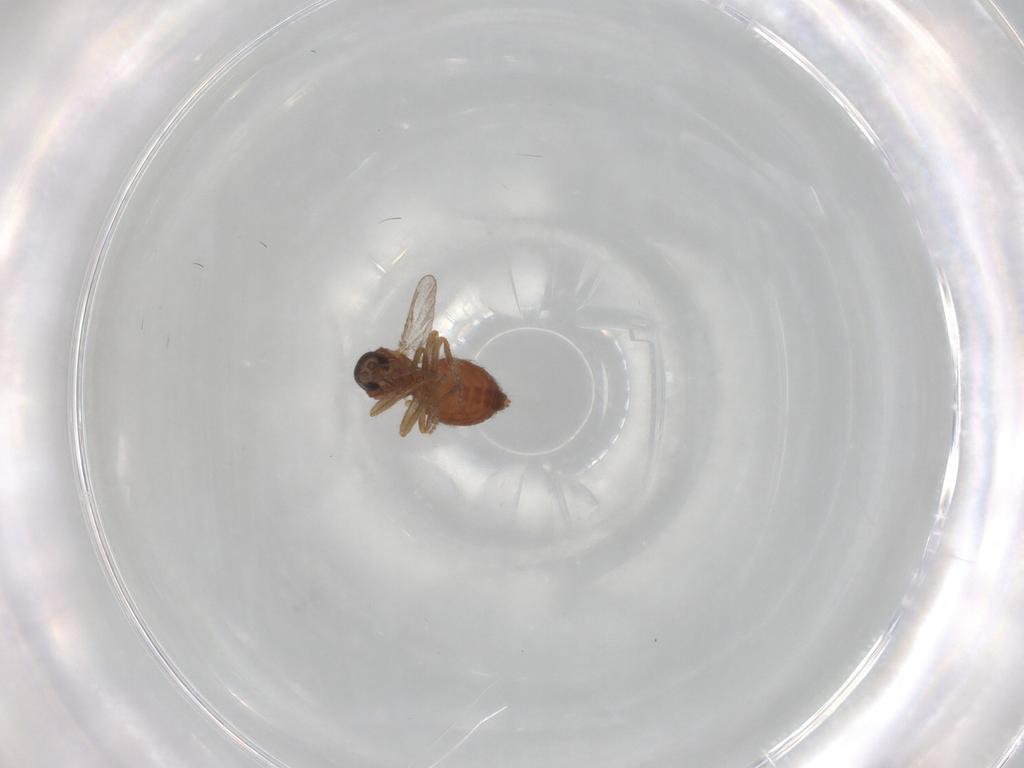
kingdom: Animalia
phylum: Arthropoda
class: Insecta
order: Diptera
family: Ceratopogonidae
